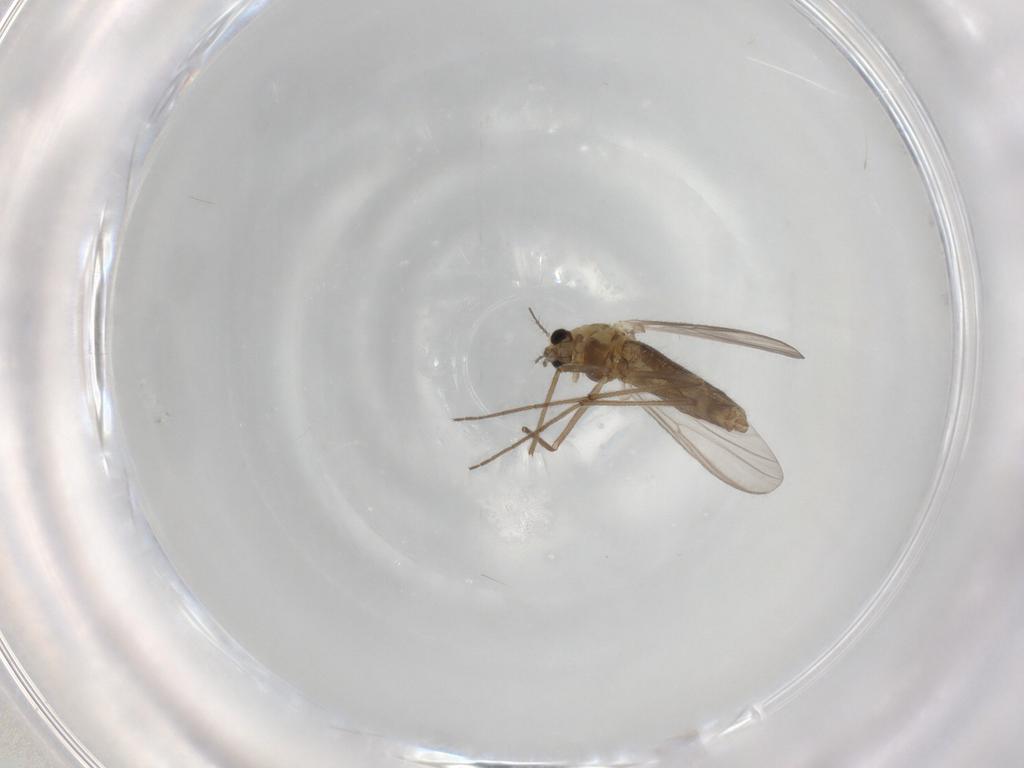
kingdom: Animalia
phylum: Arthropoda
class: Insecta
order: Diptera
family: Chironomidae
